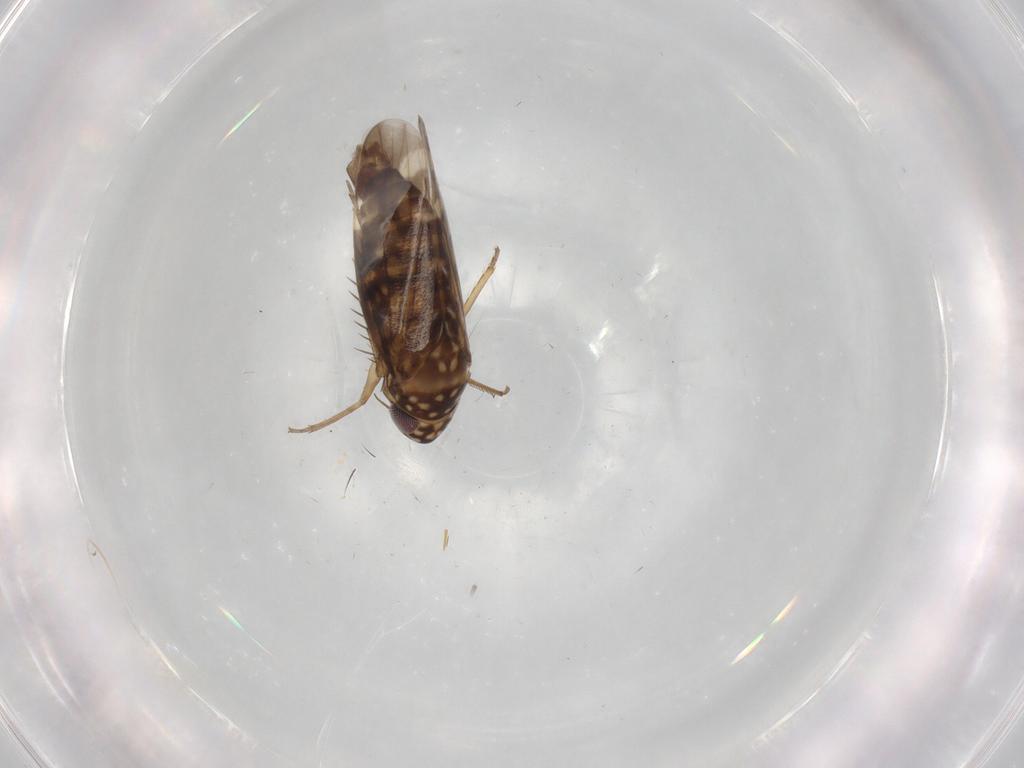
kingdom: Animalia
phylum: Arthropoda
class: Insecta
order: Hemiptera
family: Cicadellidae
